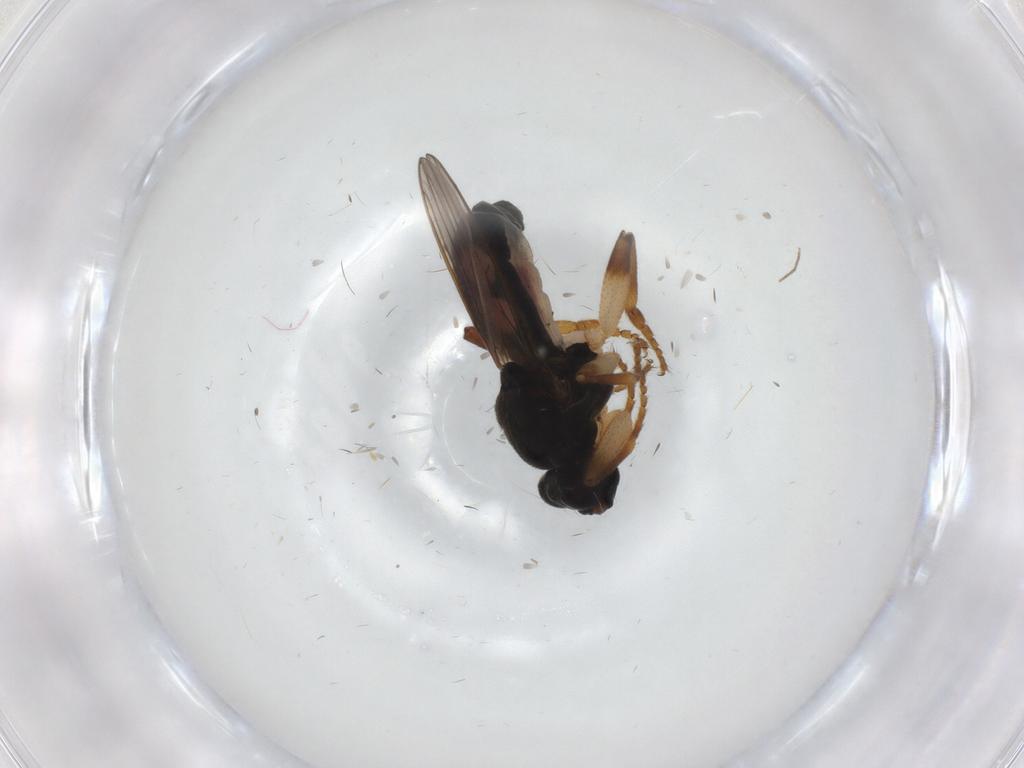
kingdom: Animalia
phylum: Arthropoda
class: Insecta
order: Diptera
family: Sphaeroceridae
